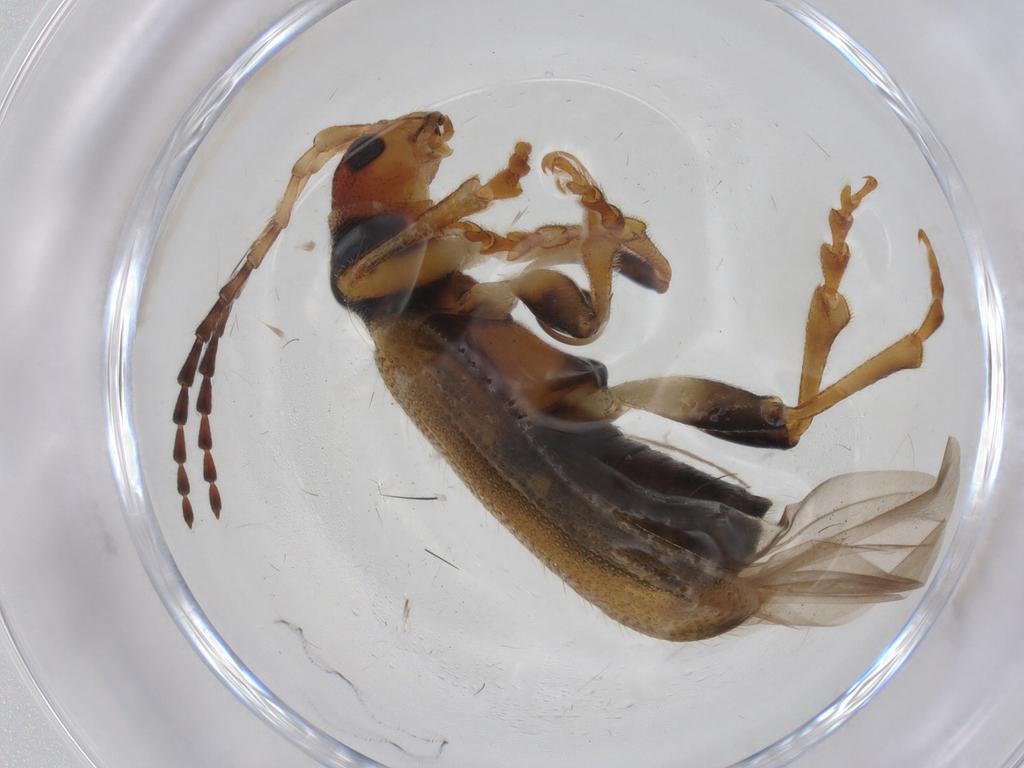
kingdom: Animalia
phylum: Arthropoda
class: Insecta
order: Coleoptera
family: Chrysomelidae
